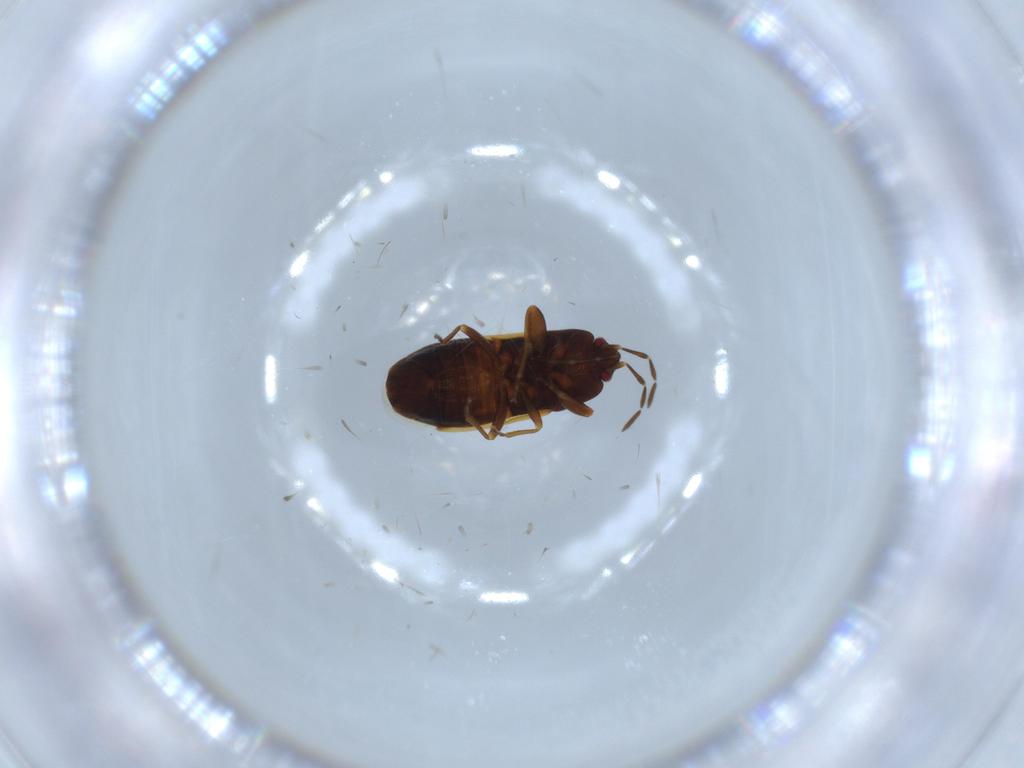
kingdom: Animalia
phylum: Arthropoda
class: Insecta
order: Hemiptera
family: Rhyparochromidae
